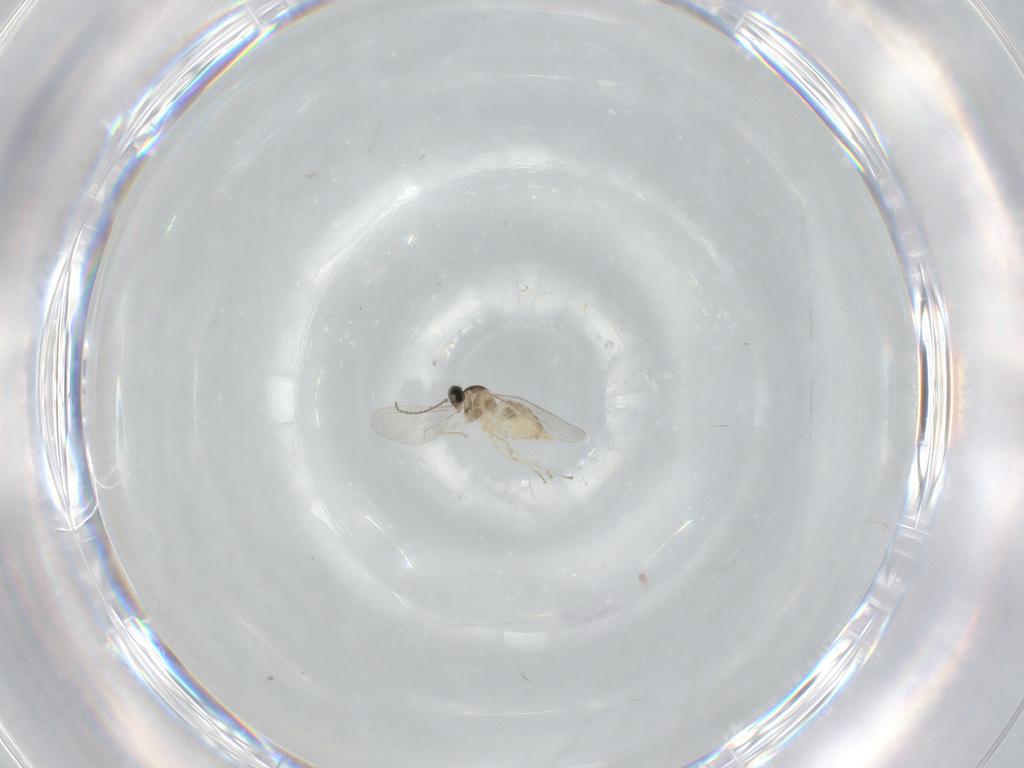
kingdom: Animalia
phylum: Arthropoda
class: Insecta
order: Diptera
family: Cecidomyiidae
